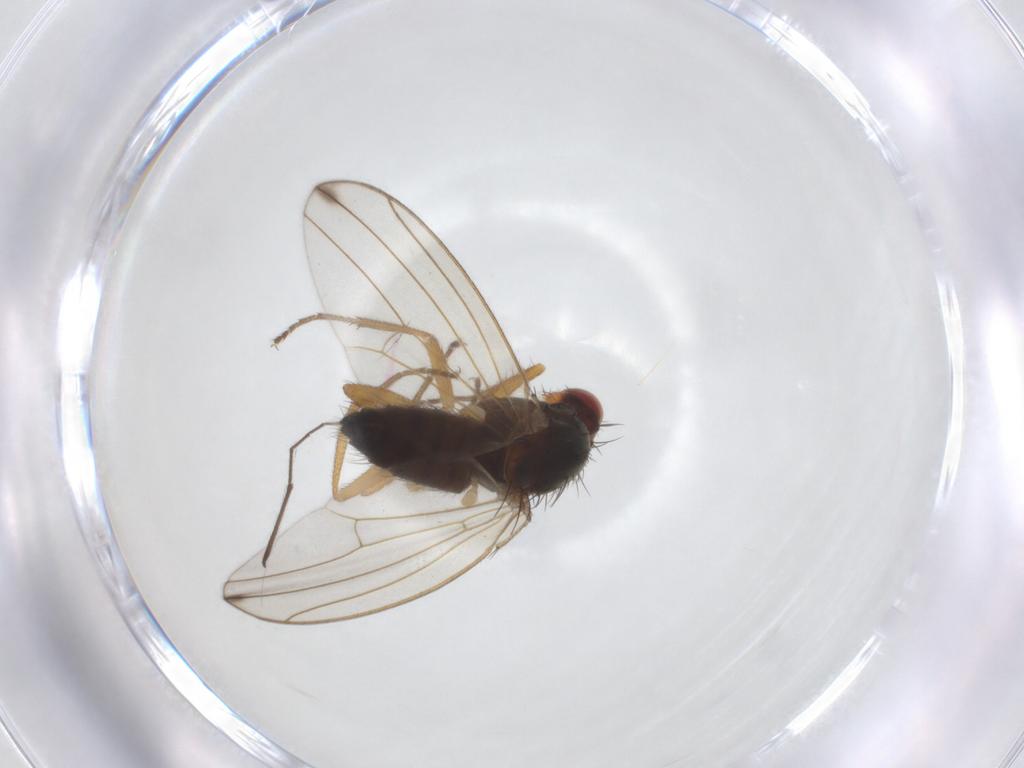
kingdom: Animalia
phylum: Arthropoda
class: Insecta
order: Diptera
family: Drosophilidae
